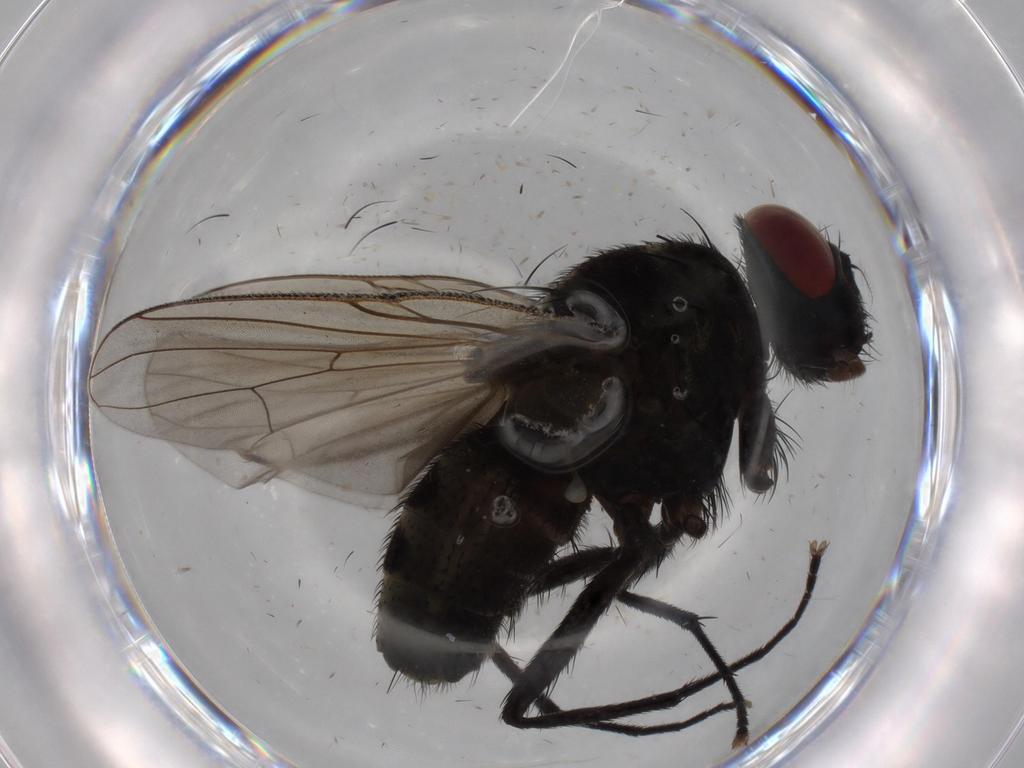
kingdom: Animalia
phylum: Arthropoda
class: Insecta
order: Diptera
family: Muscidae
